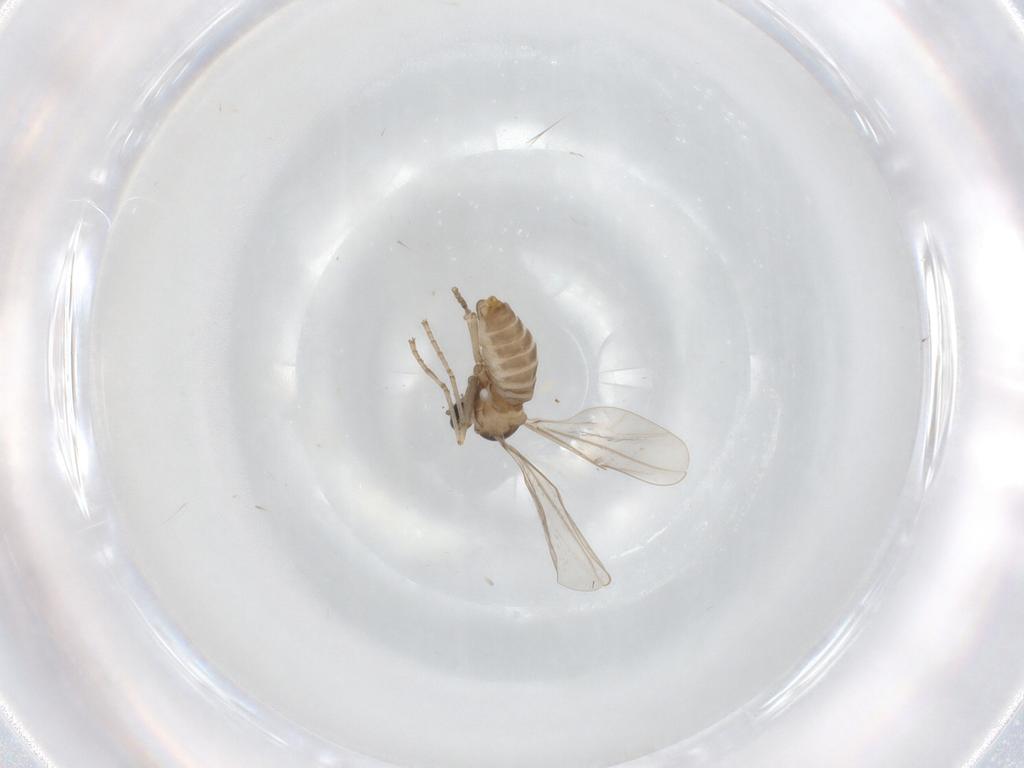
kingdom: Animalia
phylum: Arthropoda
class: Insecta
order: Diptera
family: Cecidomyiidae
